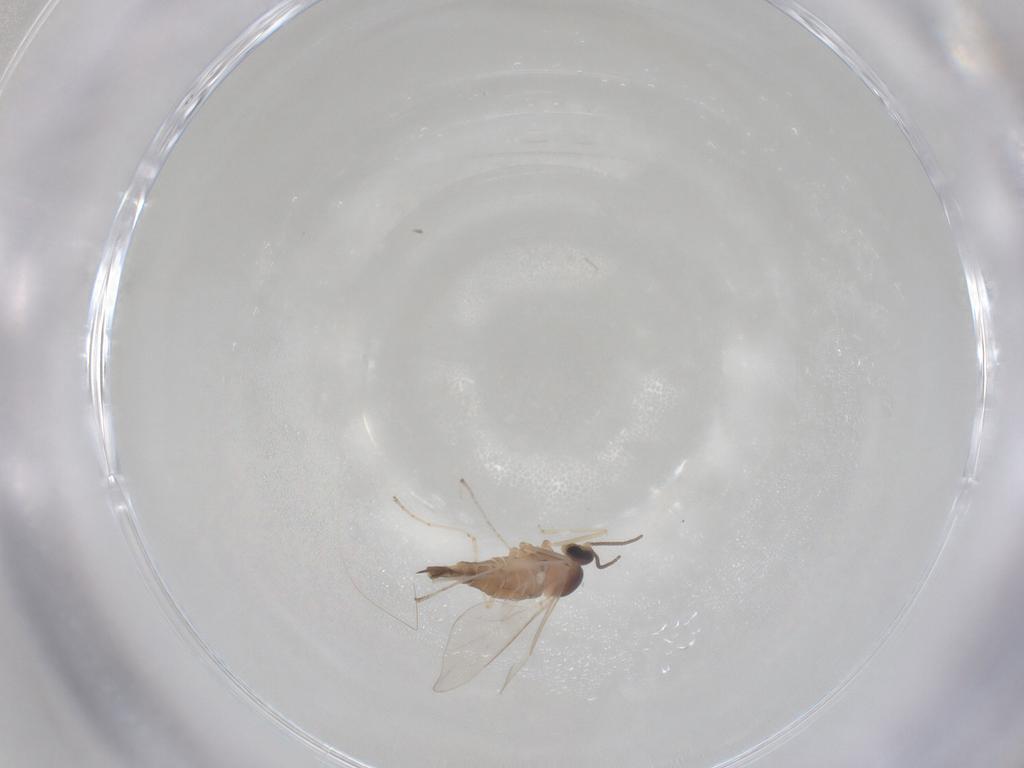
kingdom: Animalia
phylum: Arthropoda
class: Insecta
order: Diptera
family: Cecidomyiidae
